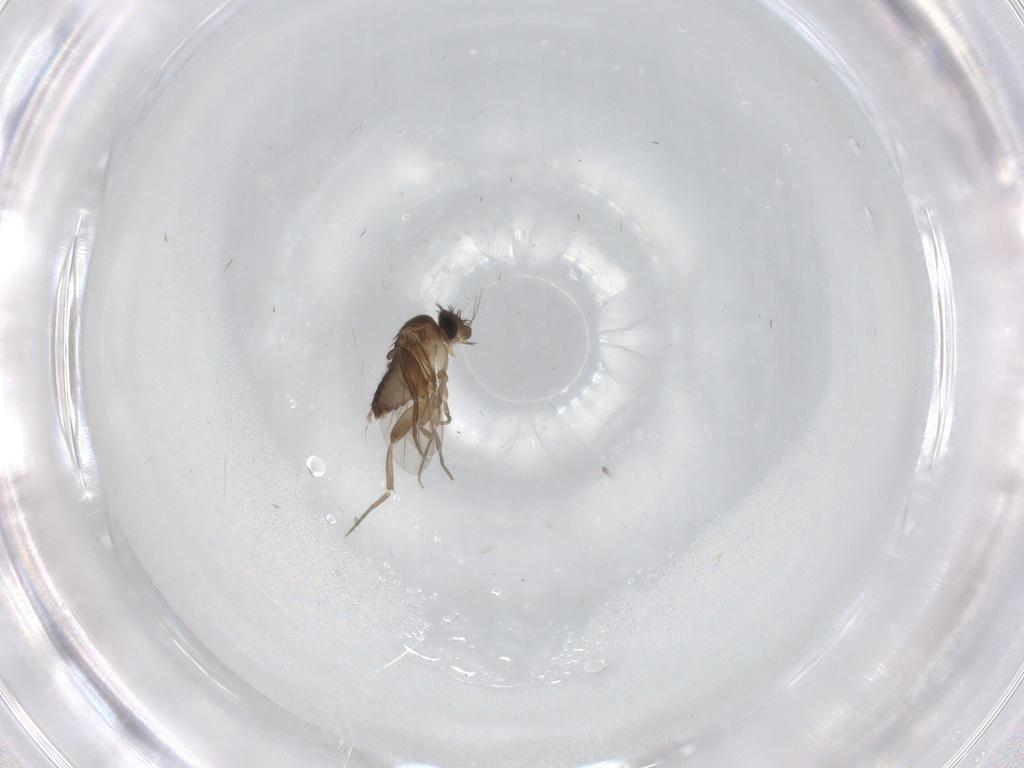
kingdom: Animalia
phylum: Arthropoda
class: Insecta
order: Diptera
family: Phoridae
